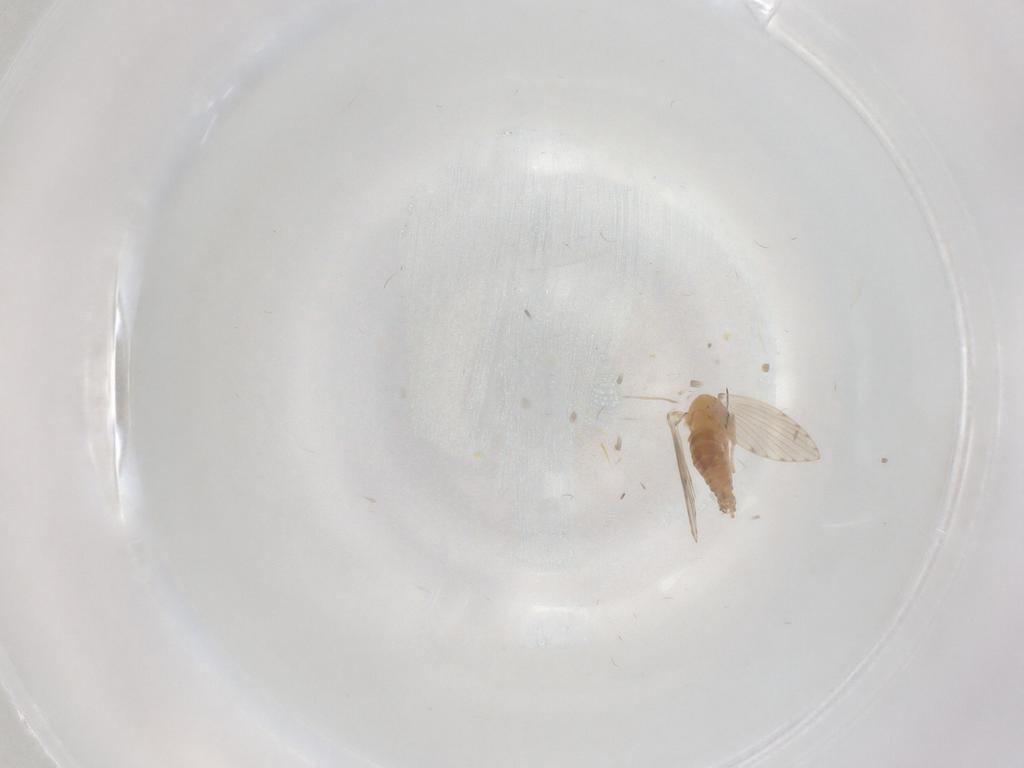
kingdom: Animalia
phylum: Arthropoda
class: Insecta
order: Diptera
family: Psychodidae
